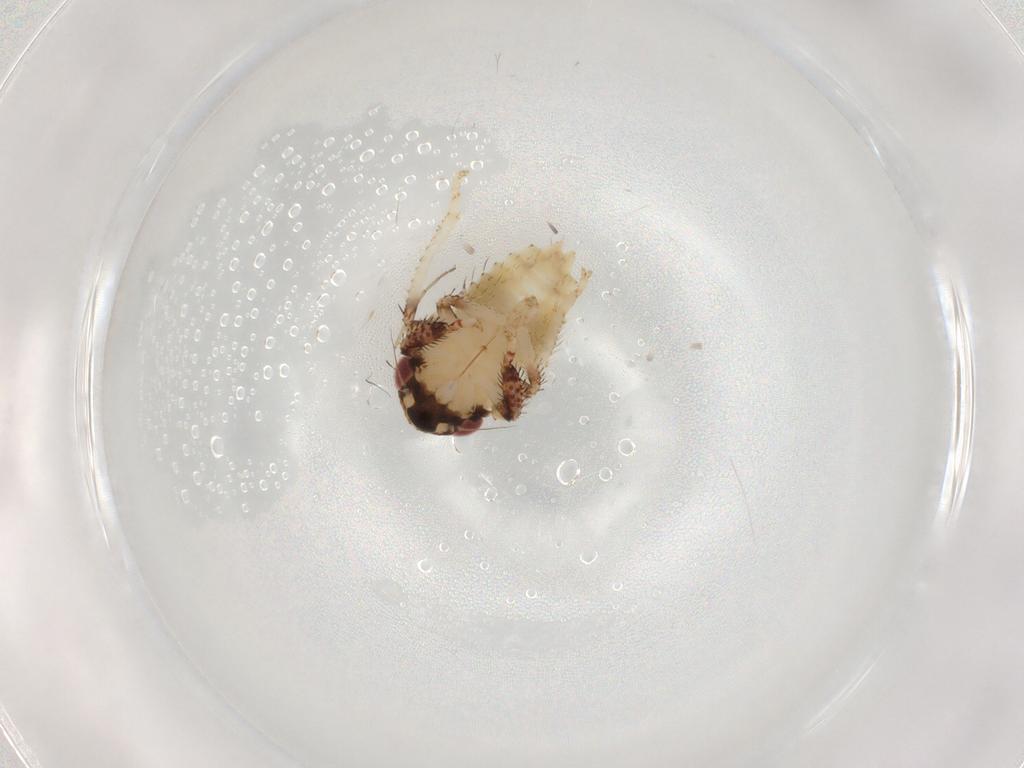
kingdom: Animalia
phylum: Arthropoda
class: Insecta
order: Hemiptera
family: Cicadellidae
